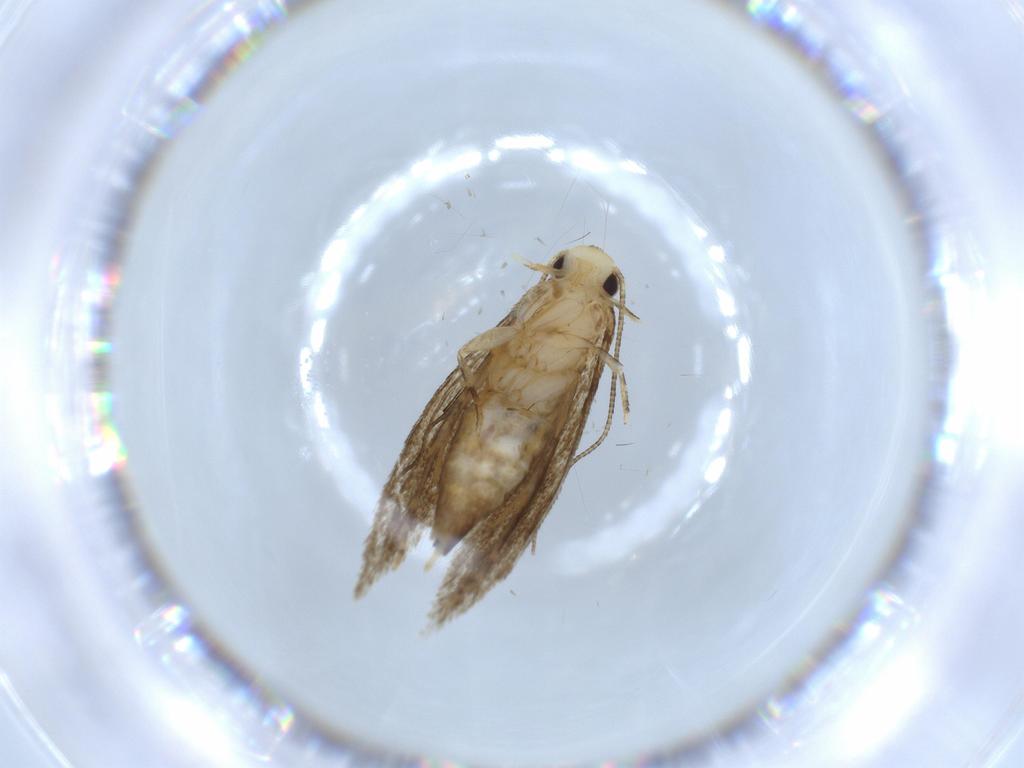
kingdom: Animalia
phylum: Arthropoda
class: Insecta
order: Lepidoptera
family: Tineidae
